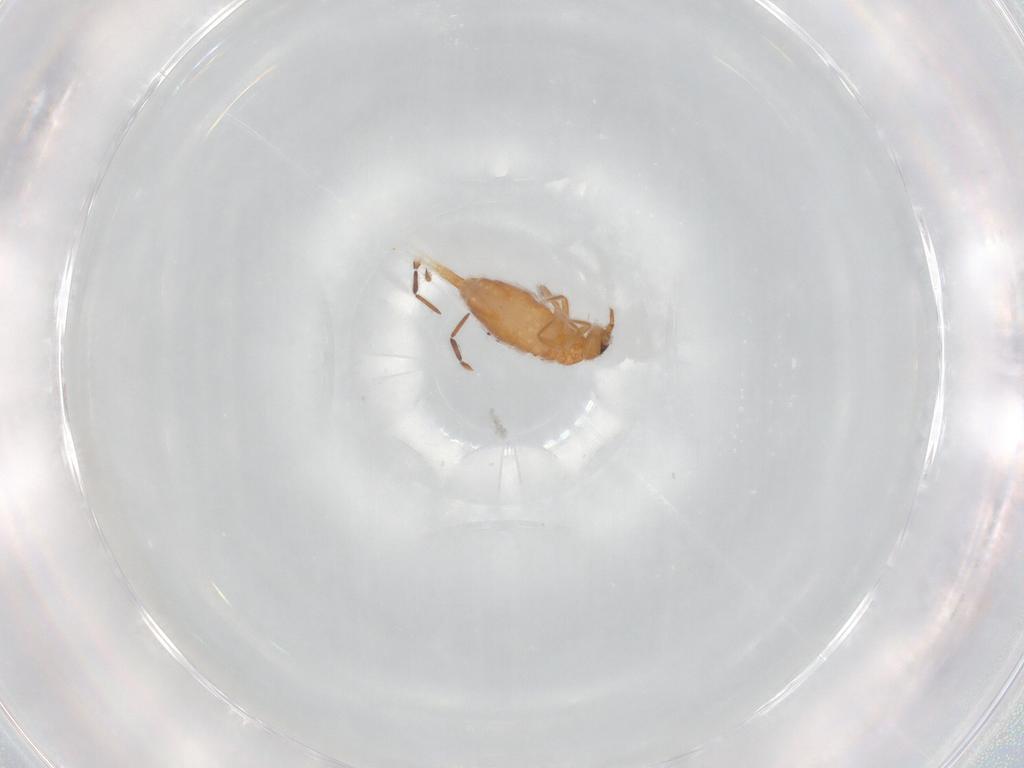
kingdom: Animalia
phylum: Arthropoda
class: Collembola
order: Entomobryomorpha
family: Entomobryidae
